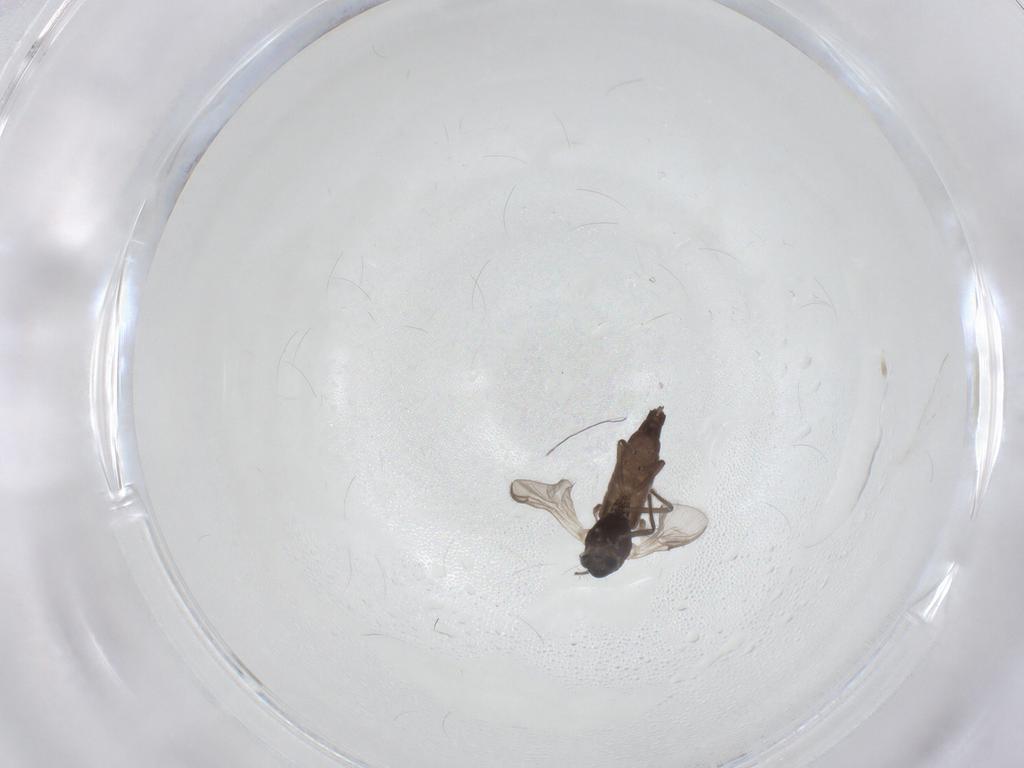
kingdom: Animalia
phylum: Arthropoda
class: Insecta
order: Diptera
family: Chironomidae
